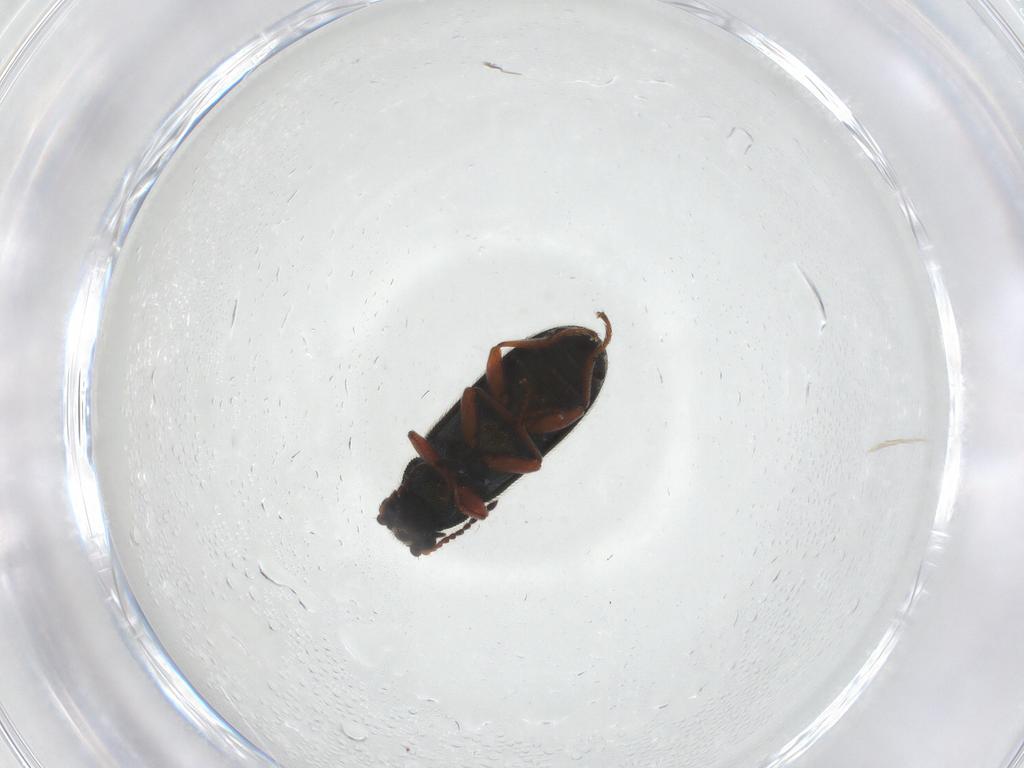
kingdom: Animalia
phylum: Arthropoda
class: Insecta
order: Coleoptera
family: Melyridae
